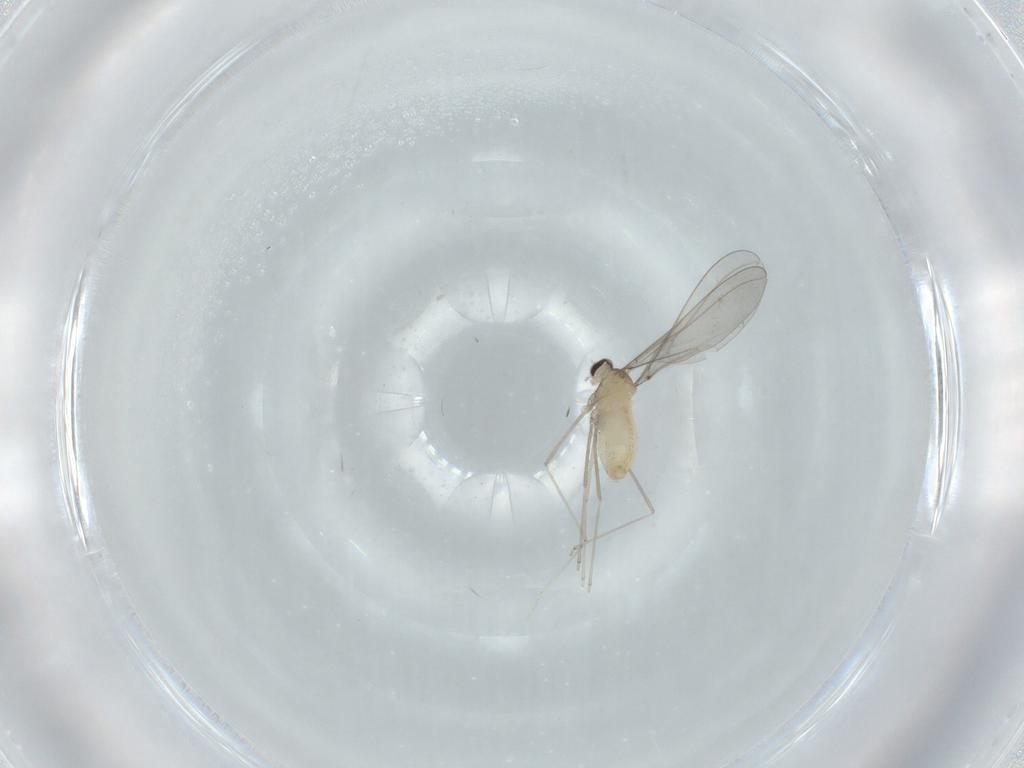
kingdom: Animalia
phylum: Arthropoda
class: Insecta
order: Diptera
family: Cecidomyiidae
